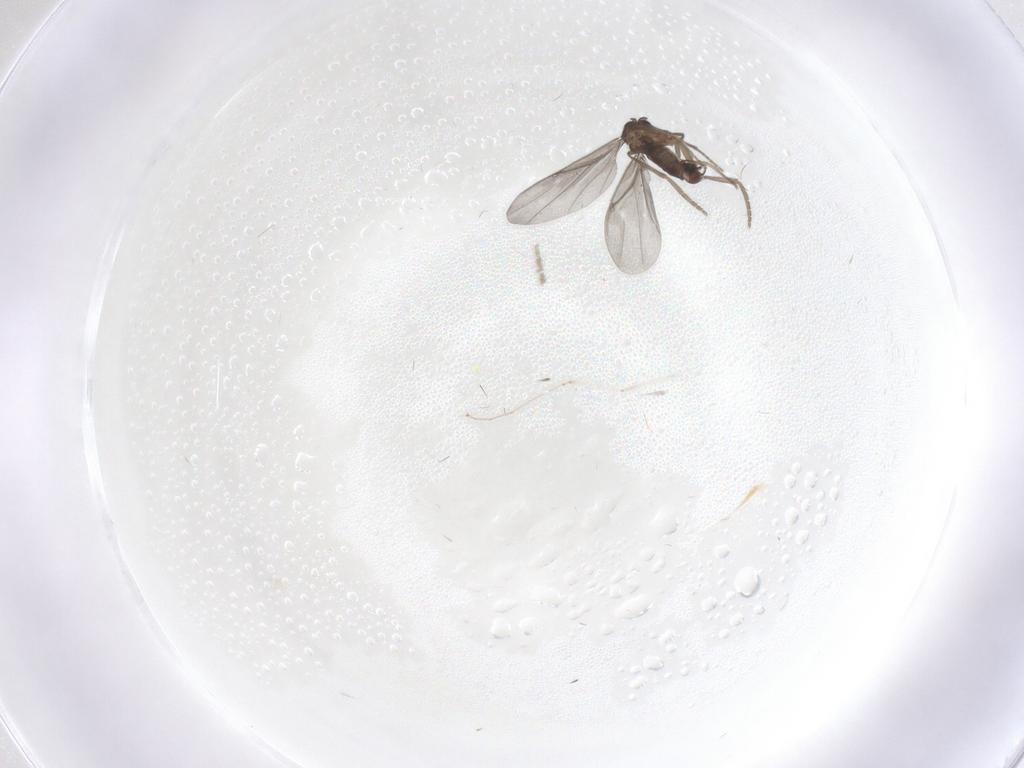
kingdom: Animalia
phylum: Arthropoda
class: Insecta
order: Diptera
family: Phoridae
